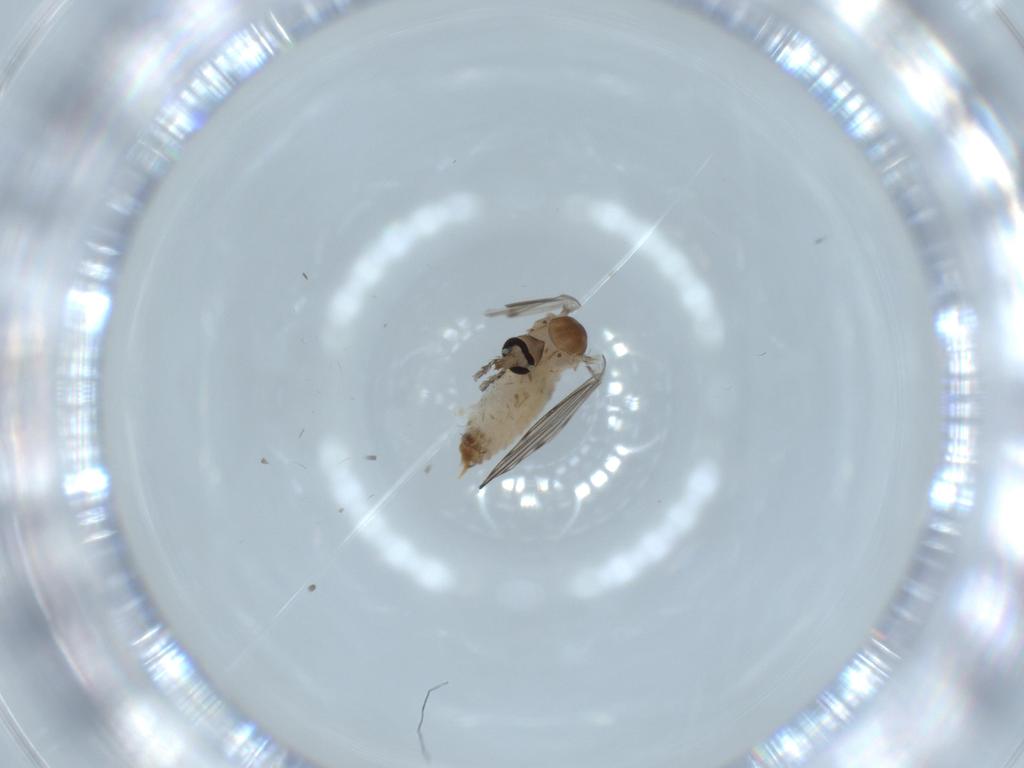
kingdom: Animalia
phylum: Arthropoda
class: Insecta
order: Diptera
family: Psychodidae
